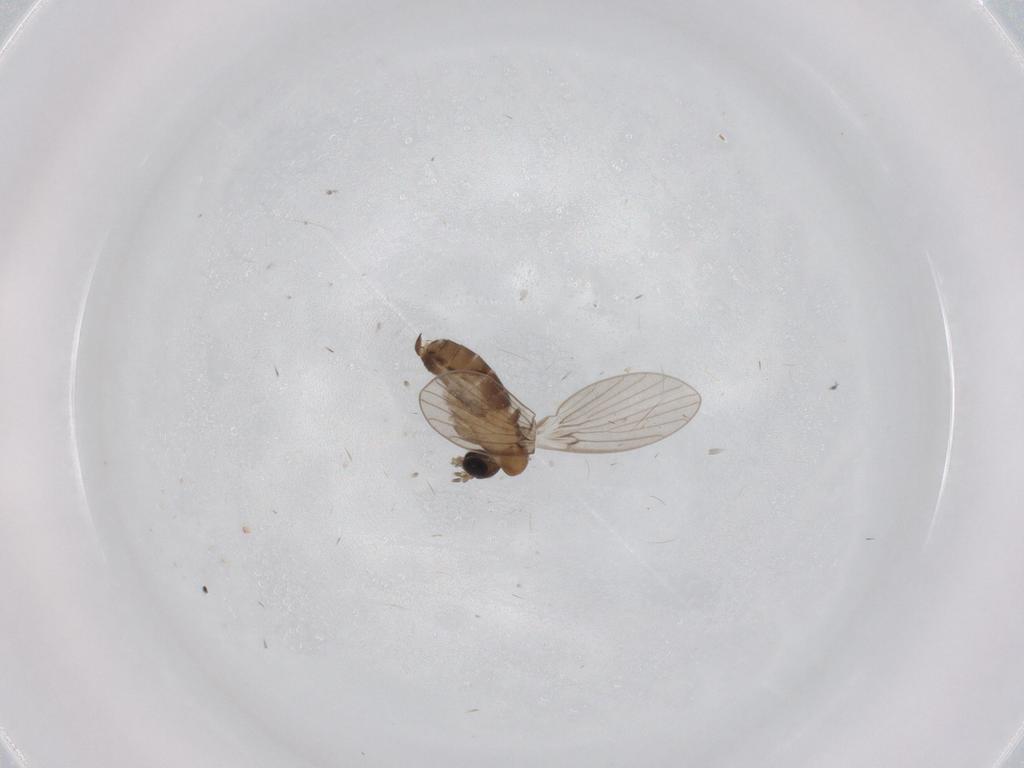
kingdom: Animalia
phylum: Arthropoda
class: Insecta
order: Diptera
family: Psychodidae
